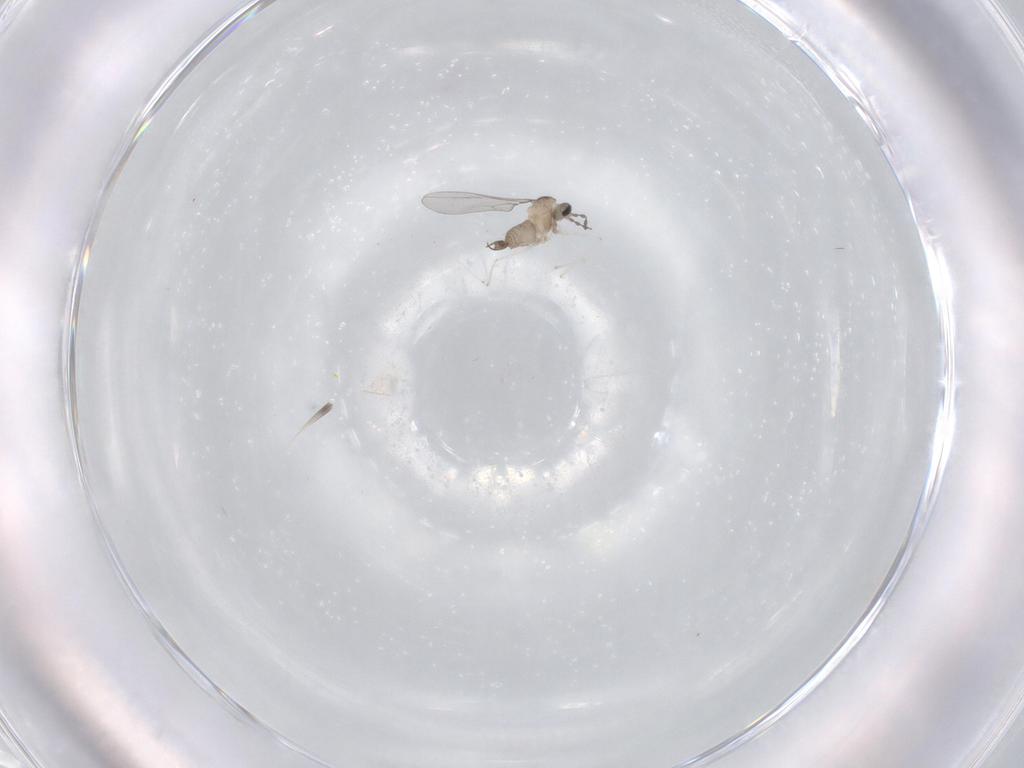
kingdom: Animalia
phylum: Arthropoda
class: Insecta
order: Diptera
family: Cecidomyiidae
